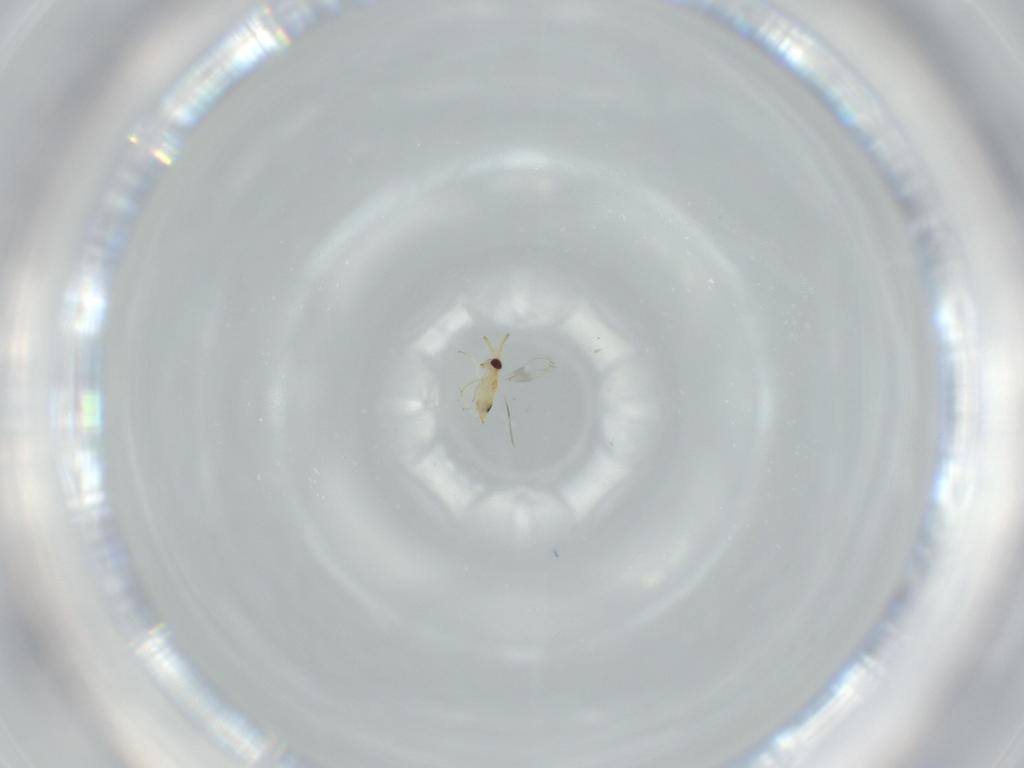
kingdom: Animalia
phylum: Arthropoda
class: Insecta
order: Hymenoptera
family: Aphelinidae
